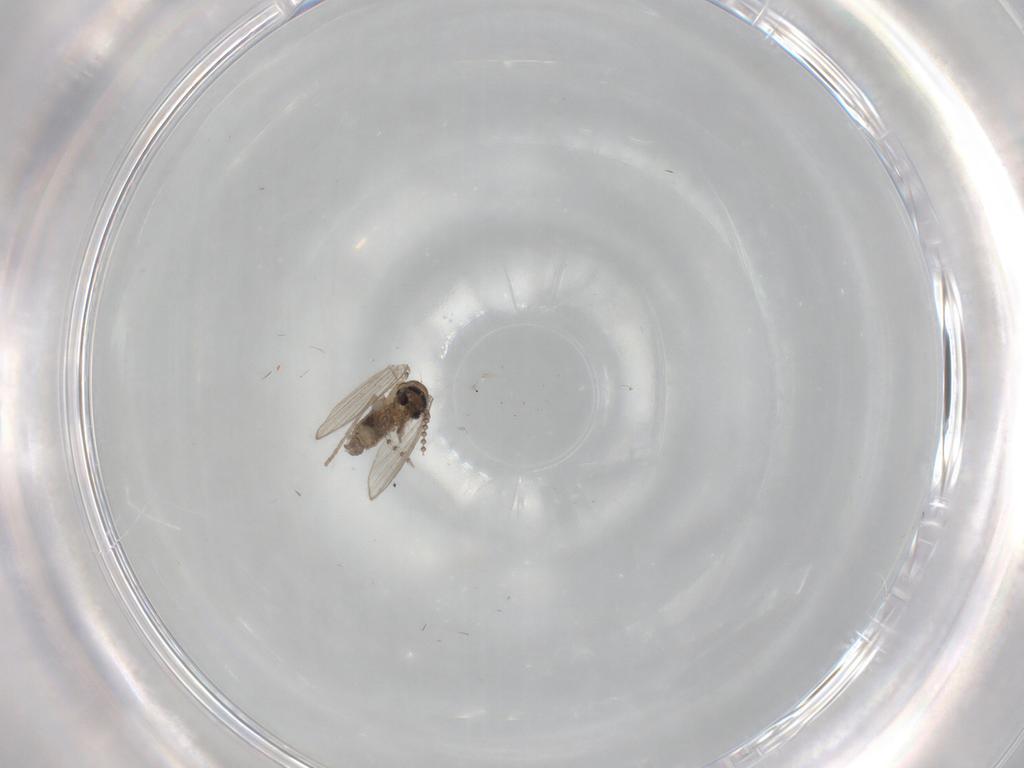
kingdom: Animalia
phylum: Arthropoda
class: Insecta
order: Diptera
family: Psychodidae
